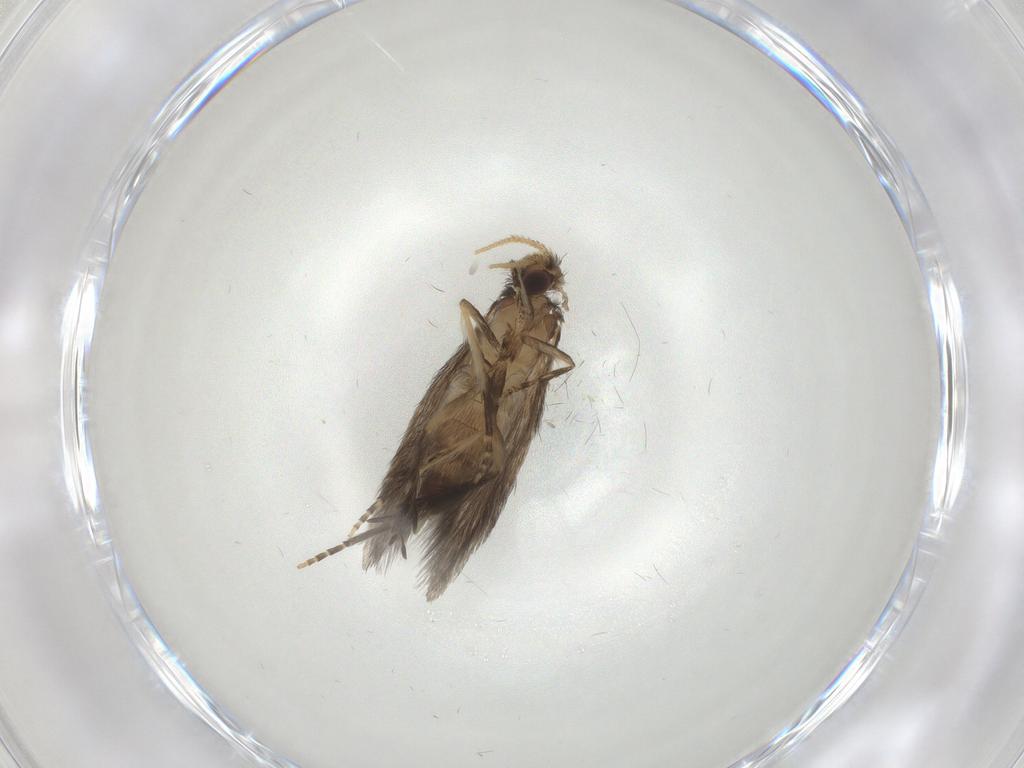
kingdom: Animalia
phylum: Arthropoda
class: Insecta
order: Trichoptera
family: Hydroptilidae
